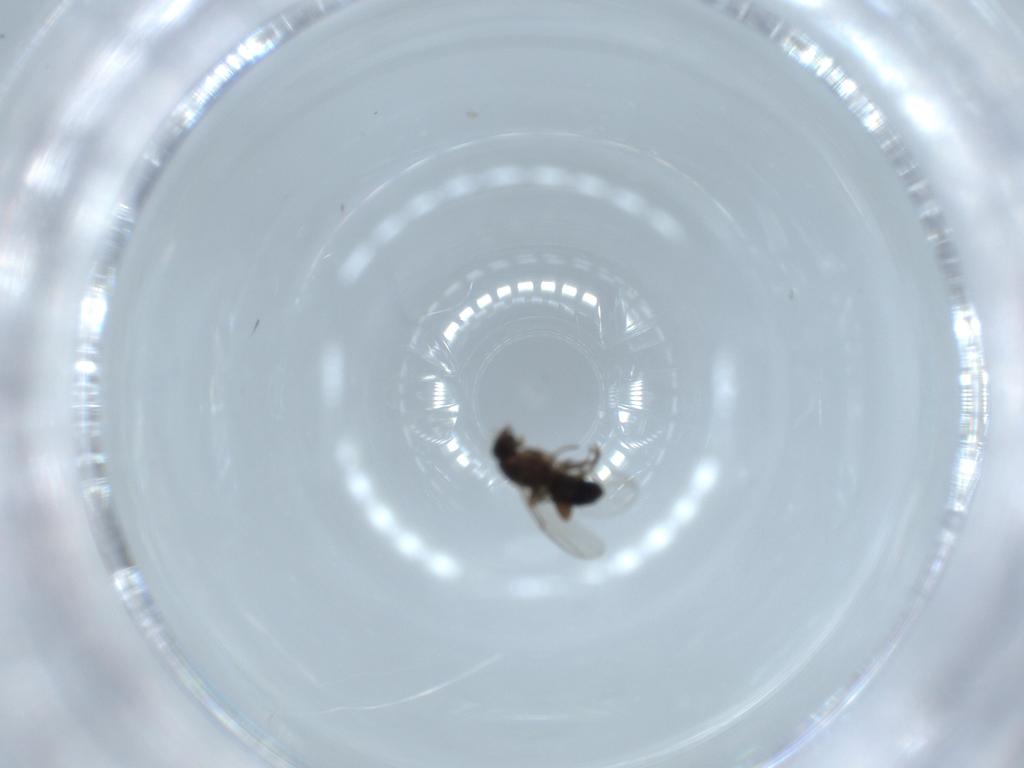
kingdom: Animalia
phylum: Arthropoda
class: Insecta
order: Diptera
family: Phoridae
